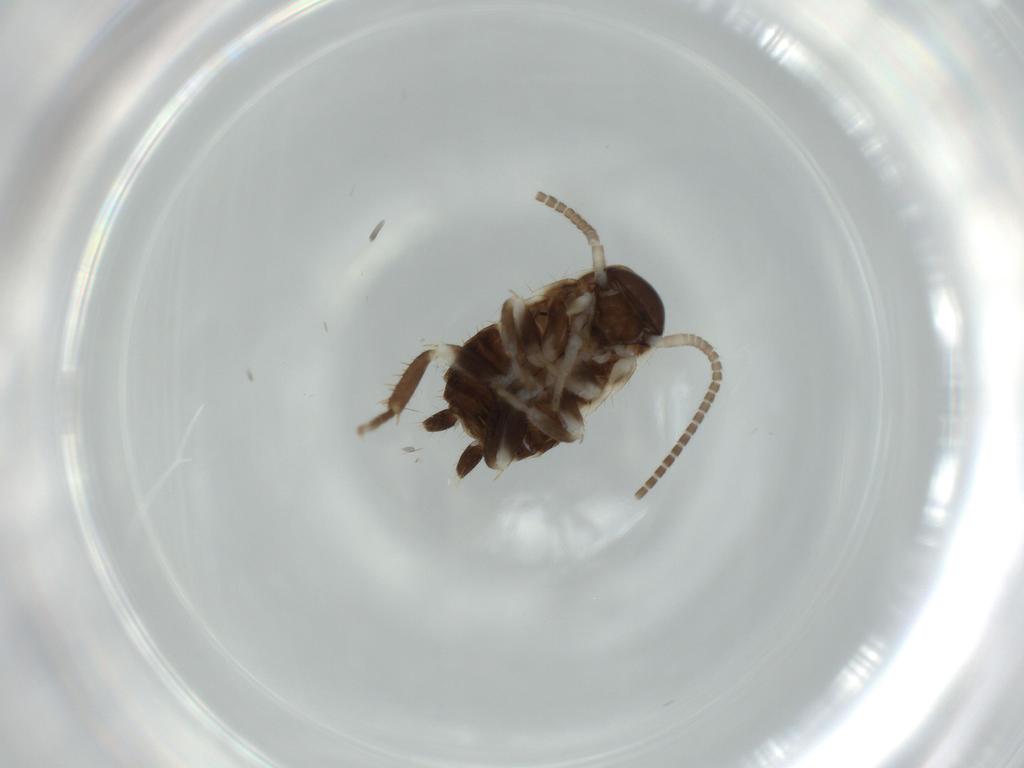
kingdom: Animalia
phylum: Arthropoda
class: Insecta
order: Blattodea
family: Ectobiidae
